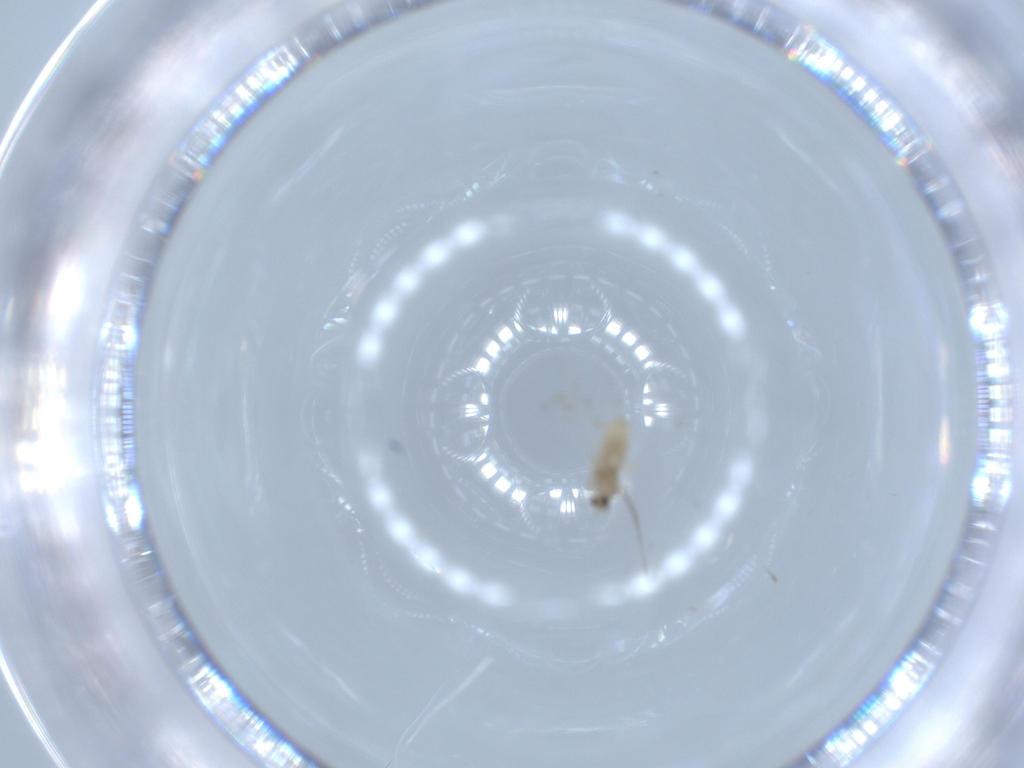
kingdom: Animalia
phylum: Arthropoda
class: Insecta
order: Diptera
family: Cecidomyiidae
